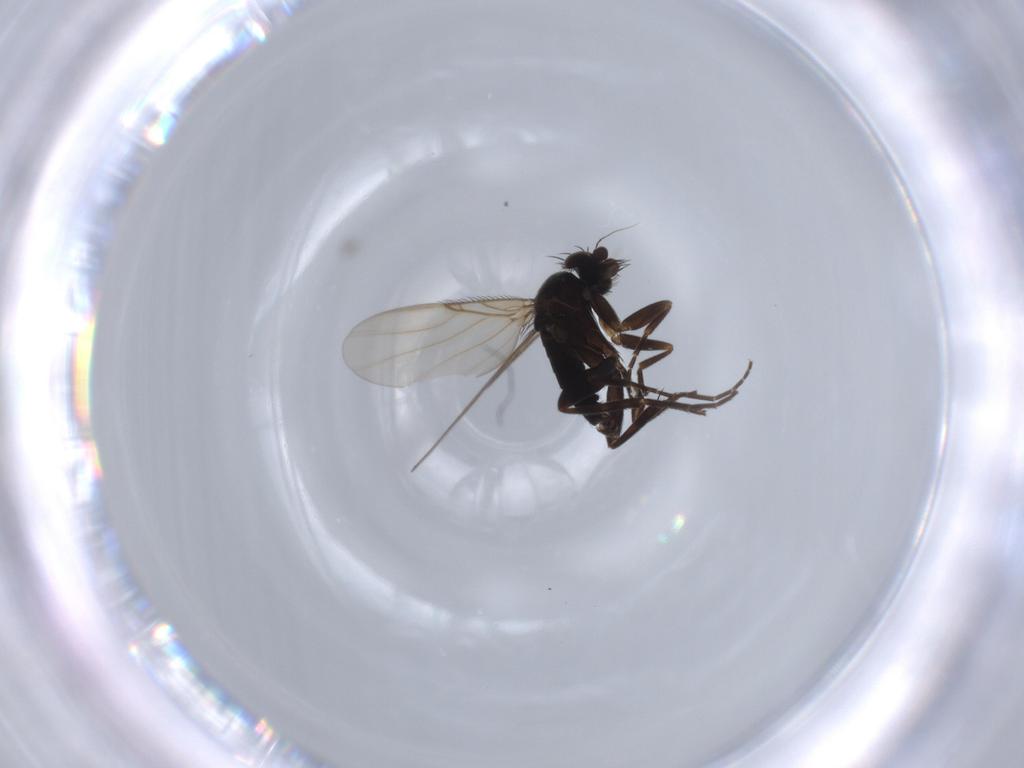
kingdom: Animalia
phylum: Arthropoda
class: Insecta
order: Diptera
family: Phoridae
